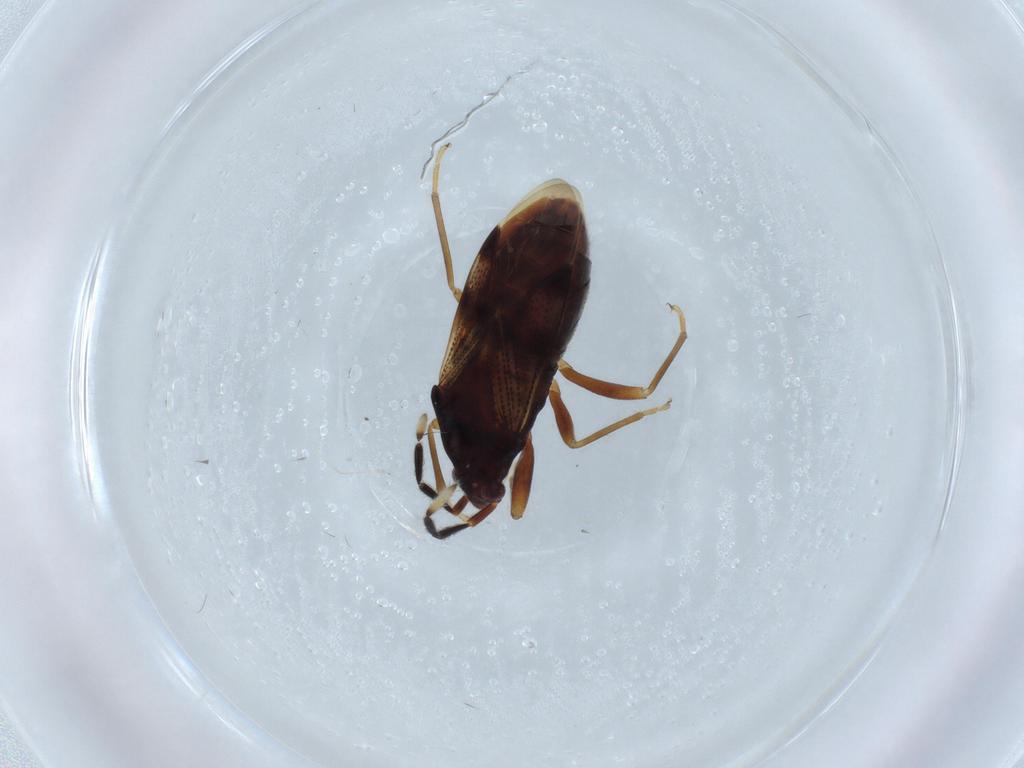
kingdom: Animalia
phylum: Arthropoda
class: Insecta
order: Hemiptera
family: Rhyparochromidae
